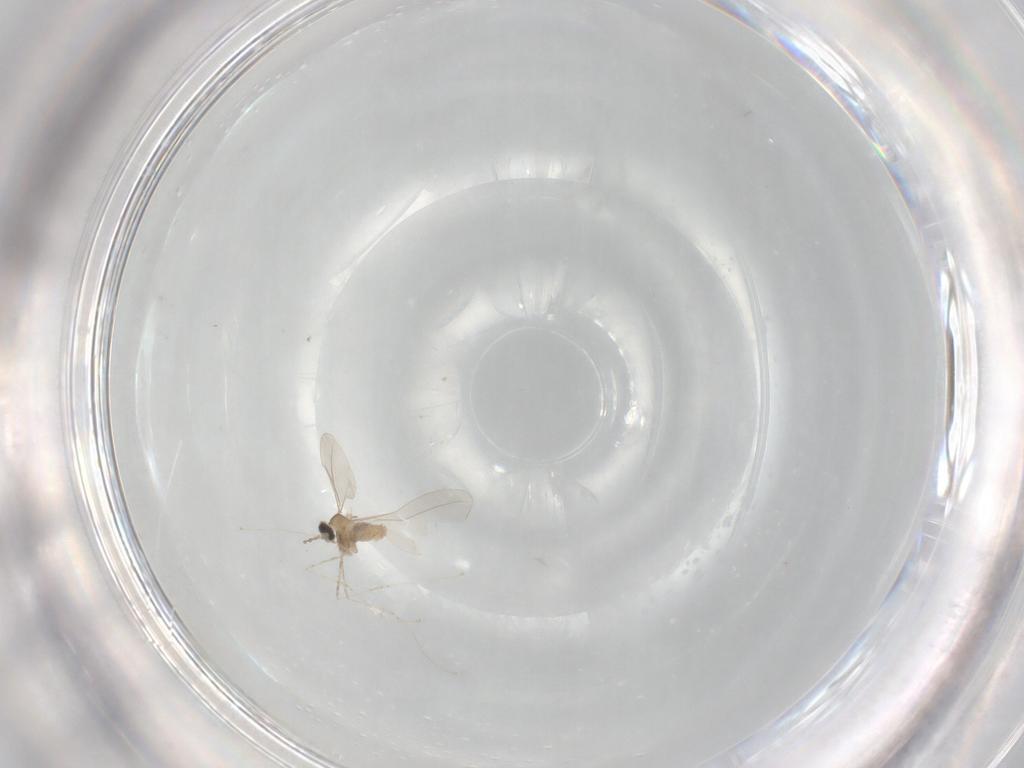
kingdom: Animalia
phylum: Arthropoda
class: Insecta
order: Diptera
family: Cecidomyiidae
